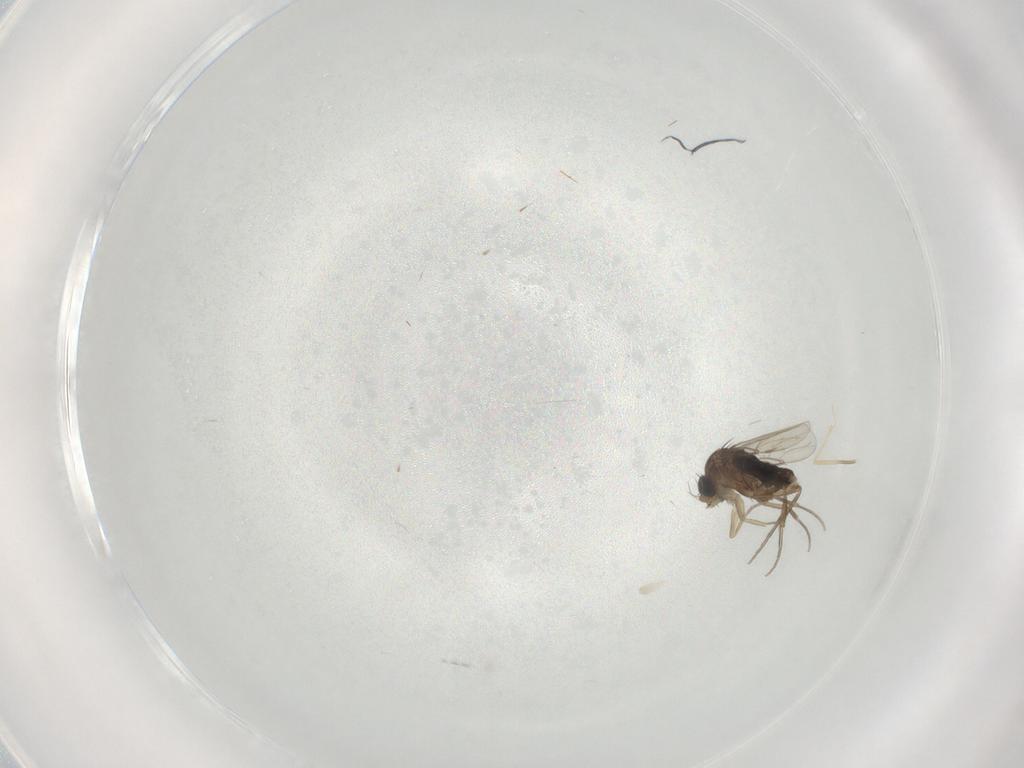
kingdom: Animalia
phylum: Arthropoda
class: Insecta
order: Diptera
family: Phoridae
